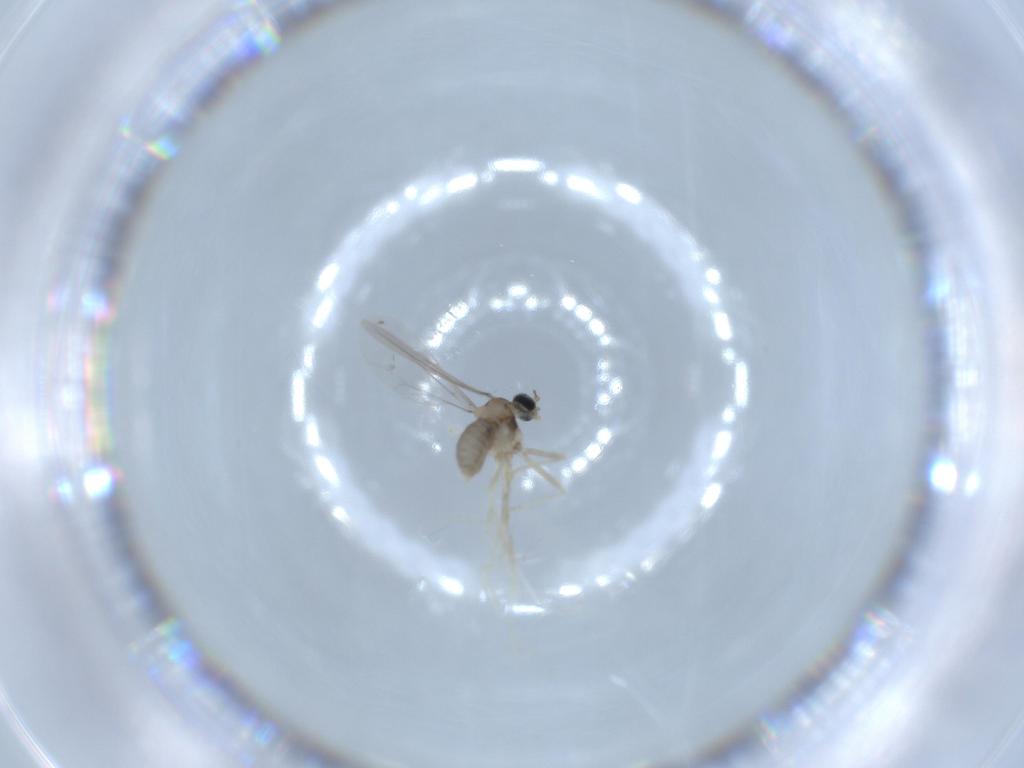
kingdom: Animalia
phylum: Arthropoda
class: Insecta
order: Diptera
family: Cecidomyiidae
